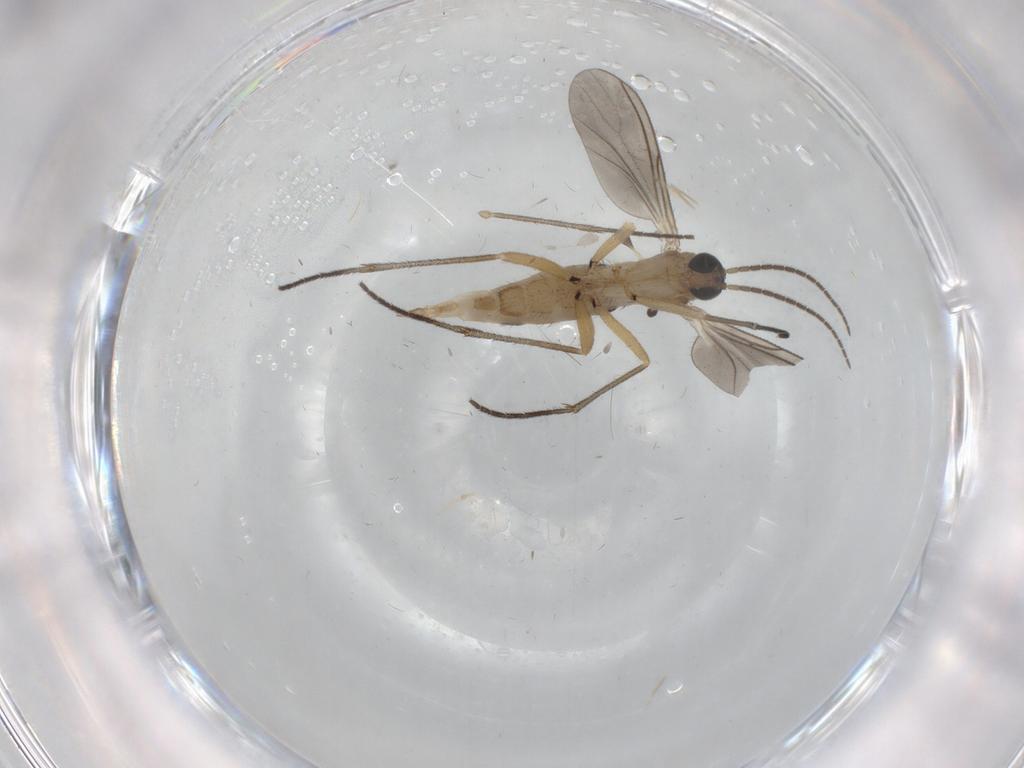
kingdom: Animalia
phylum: Arthropoda
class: Insecta
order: Diptera
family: Sciaridae
